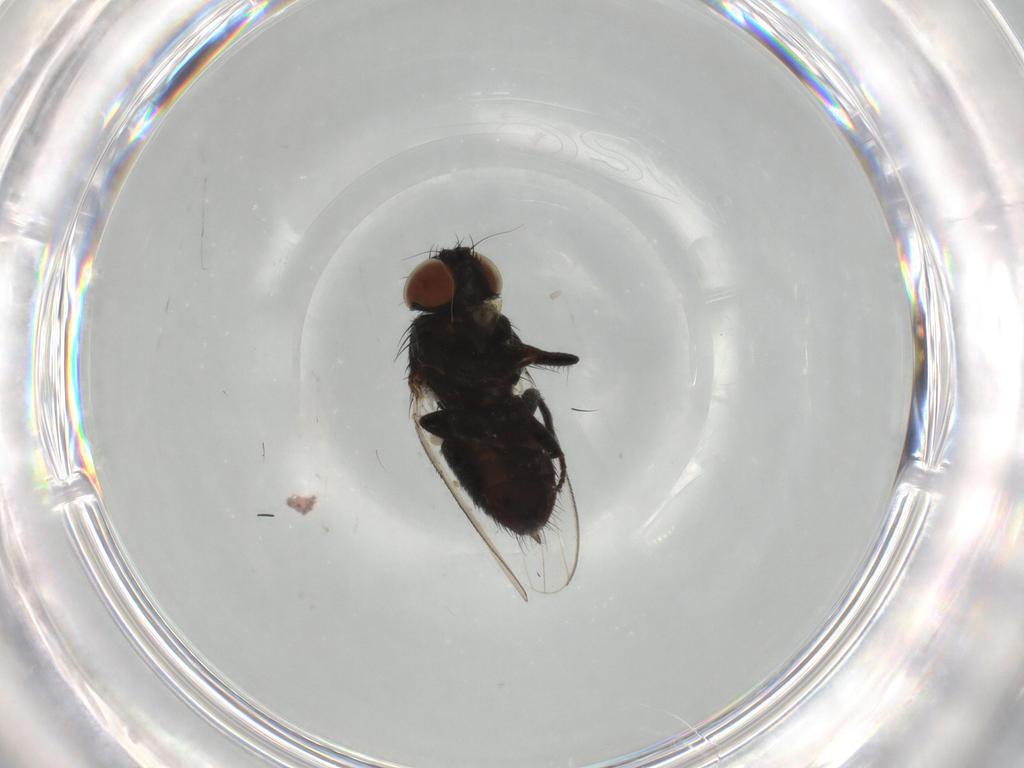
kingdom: Animalia
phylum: Arthropoda
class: Insecta
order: Diptera
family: Milichiidae
